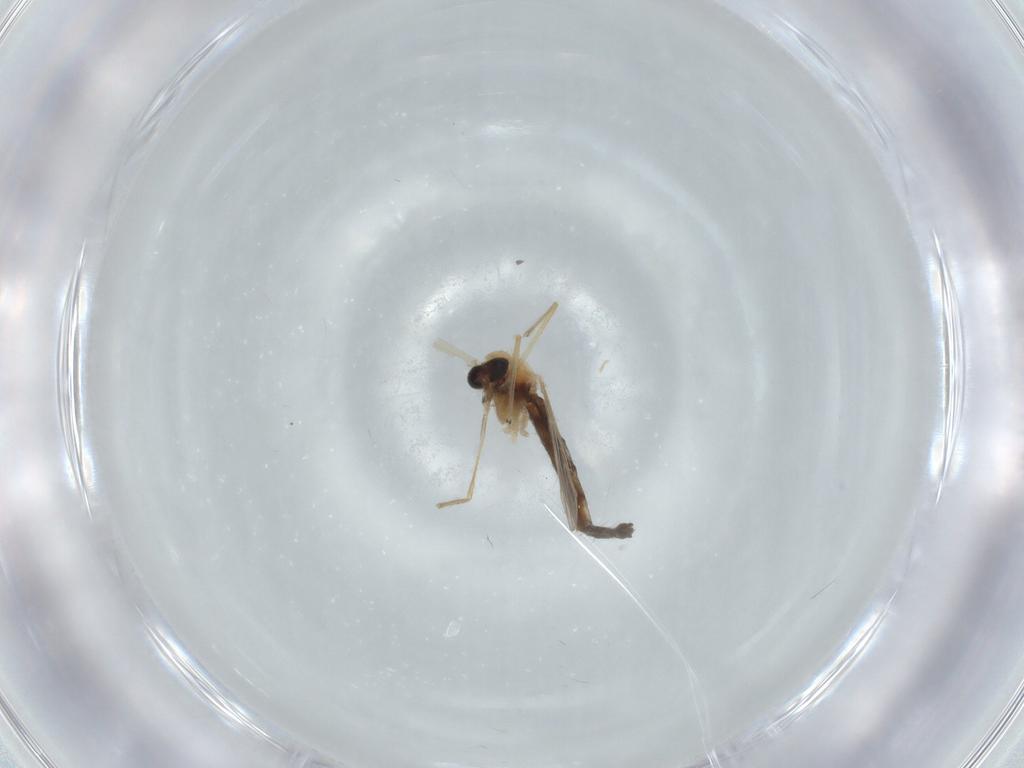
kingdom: Animalia
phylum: Arthropoda
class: Insecta
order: Diptera
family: Chironomidae
